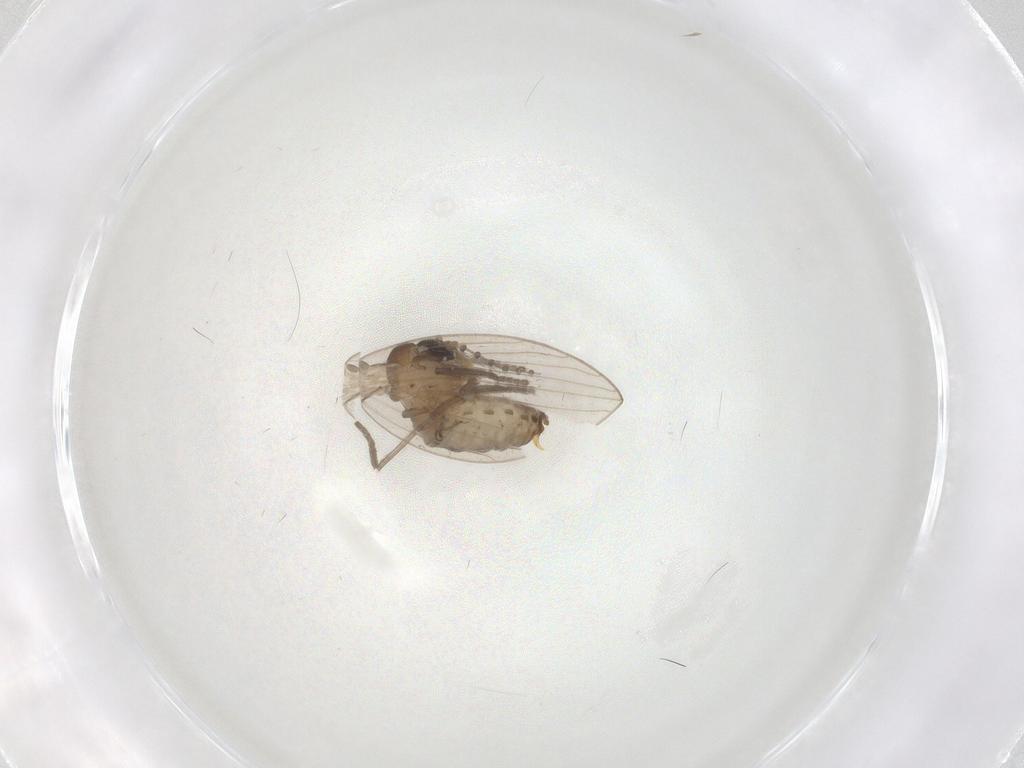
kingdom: Animalia
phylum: Arthropoda
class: Insecta
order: Diptera
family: Psychodidae
